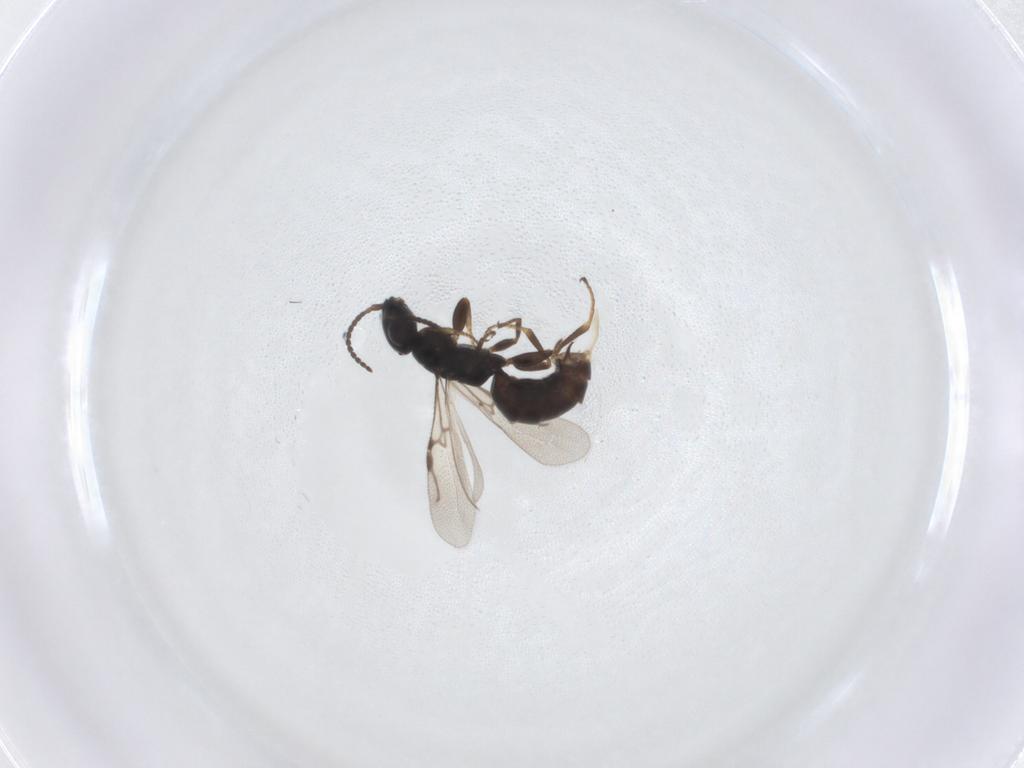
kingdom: Animalia
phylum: Arthropoda
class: Insecta
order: Hymenoptera
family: Bethylidae
